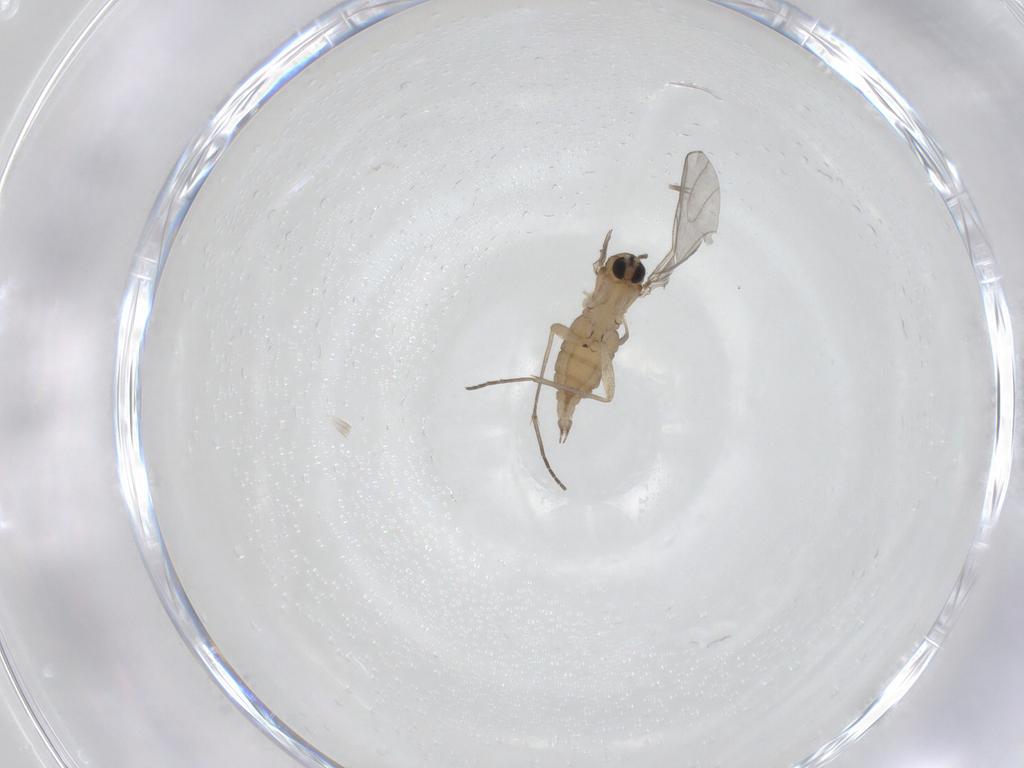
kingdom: Animalia
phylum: Arthropoda
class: Insecta
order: Diptera
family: Sciaridae
